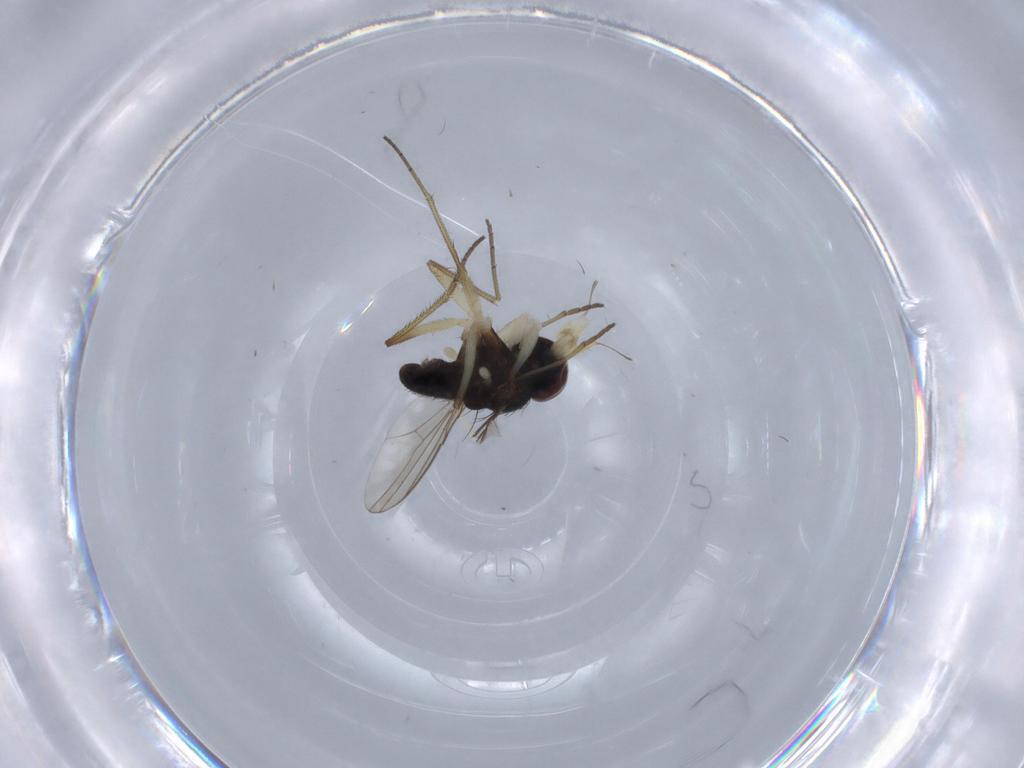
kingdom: Animalia
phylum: Arthropoda
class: Insecta
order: Diptera
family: Dolichopodidae
